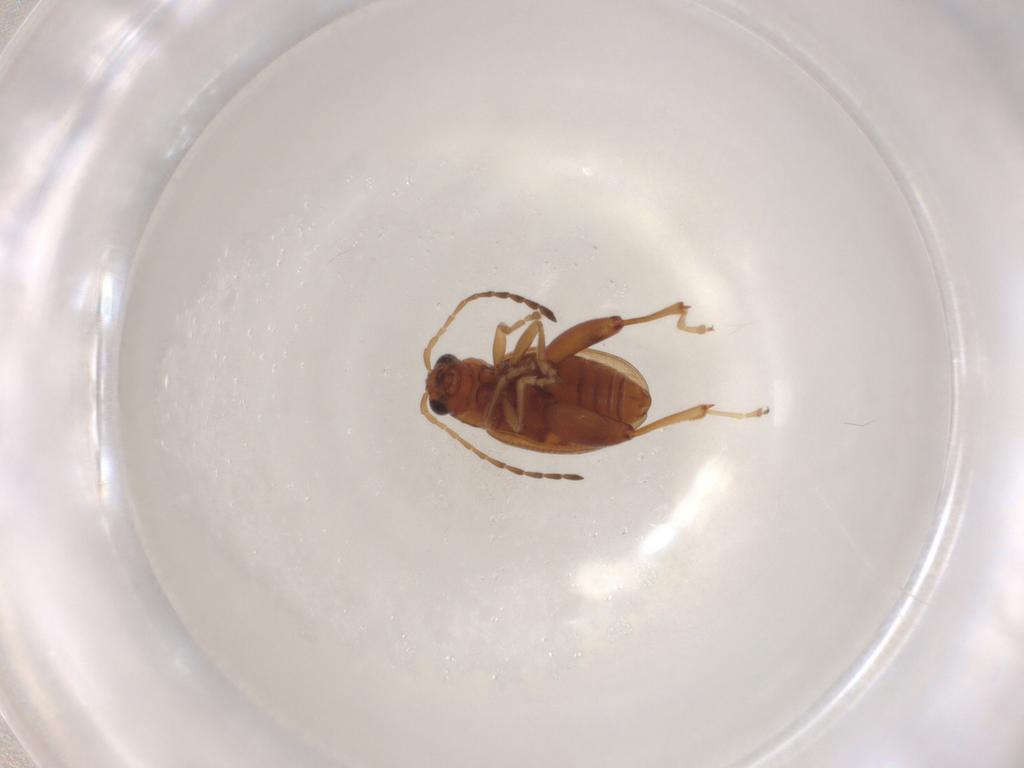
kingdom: Animalia
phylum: Arthropoda
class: Insecta
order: Coleoptera
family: Chrysomelidae
